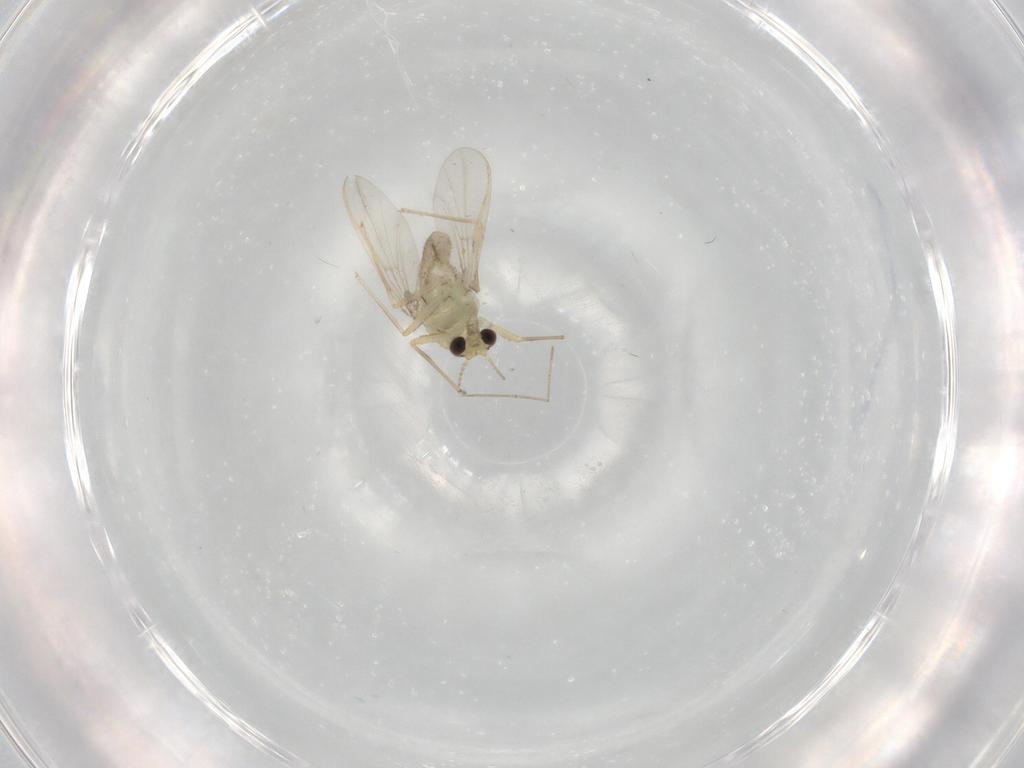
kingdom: Animalia
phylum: Arthropoda
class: Insecta
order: Diptera
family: Chironomidae
